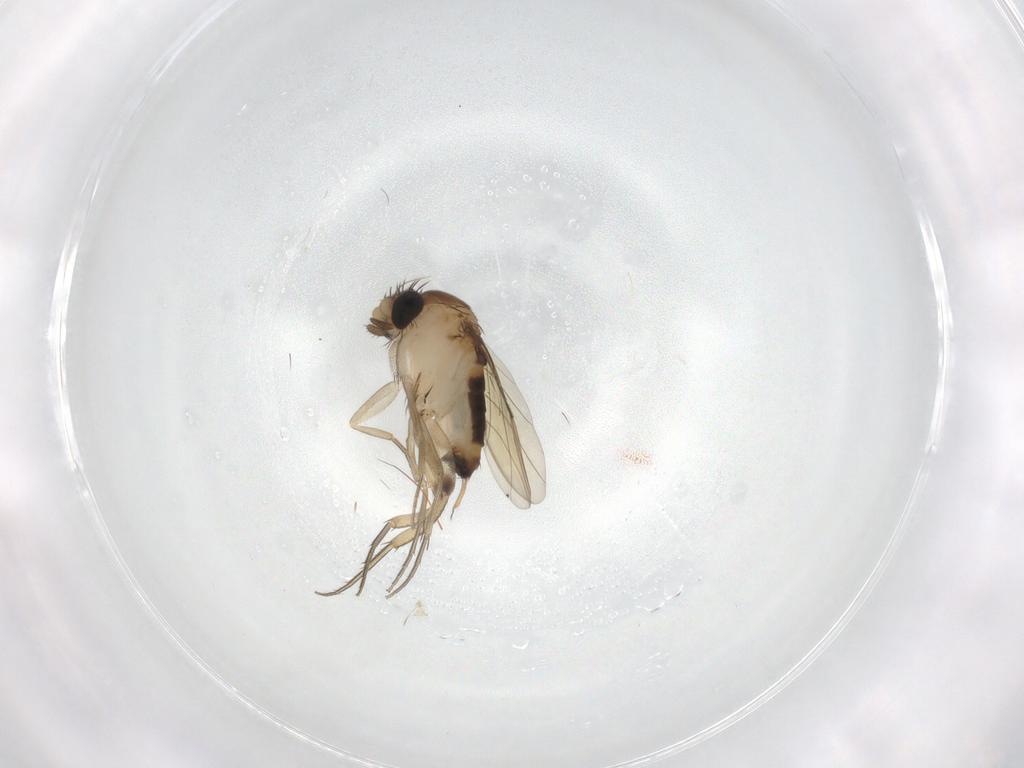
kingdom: Animalia
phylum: Arthropoda
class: Insecta
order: Diptera
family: Phoridae
